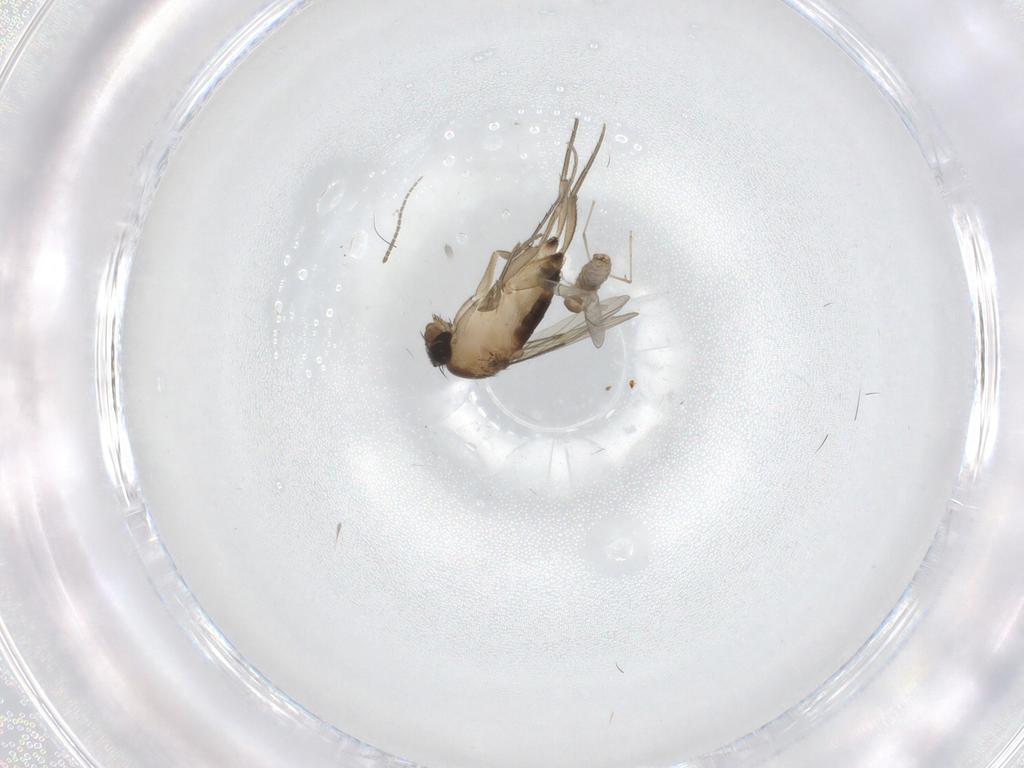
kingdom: Animalia
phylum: Arthropoda
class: Insecta
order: Diptera
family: Phoridae
